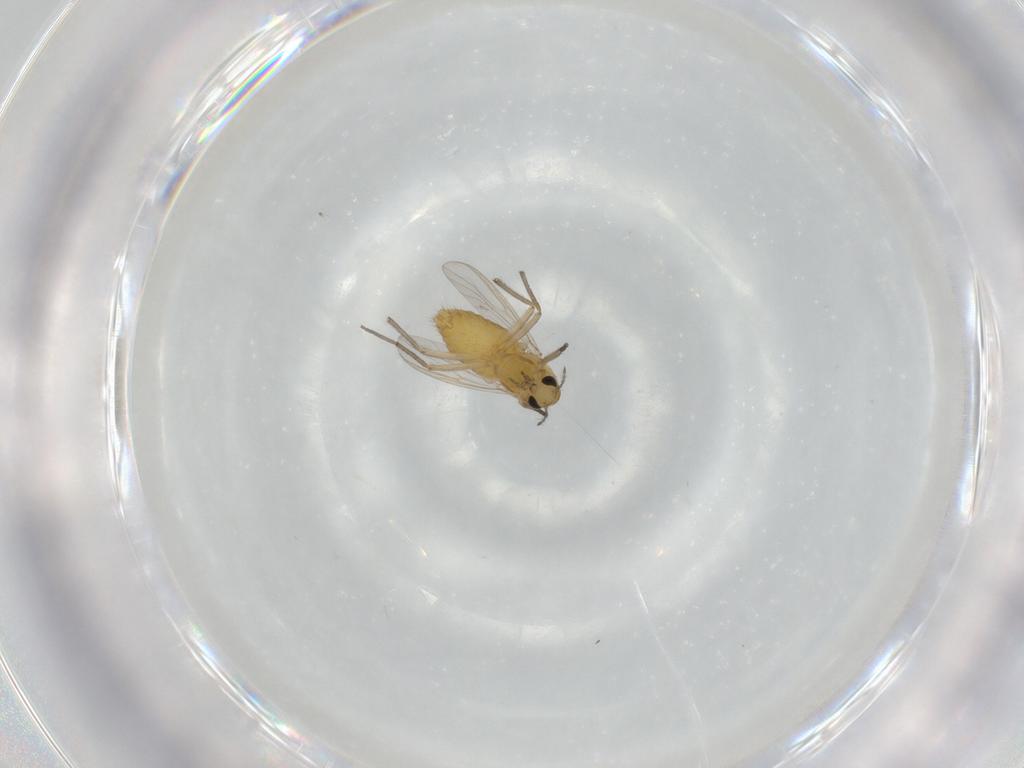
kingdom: Animalia
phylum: Arthropoda
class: Insecta
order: Diptera
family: Chironomidae
